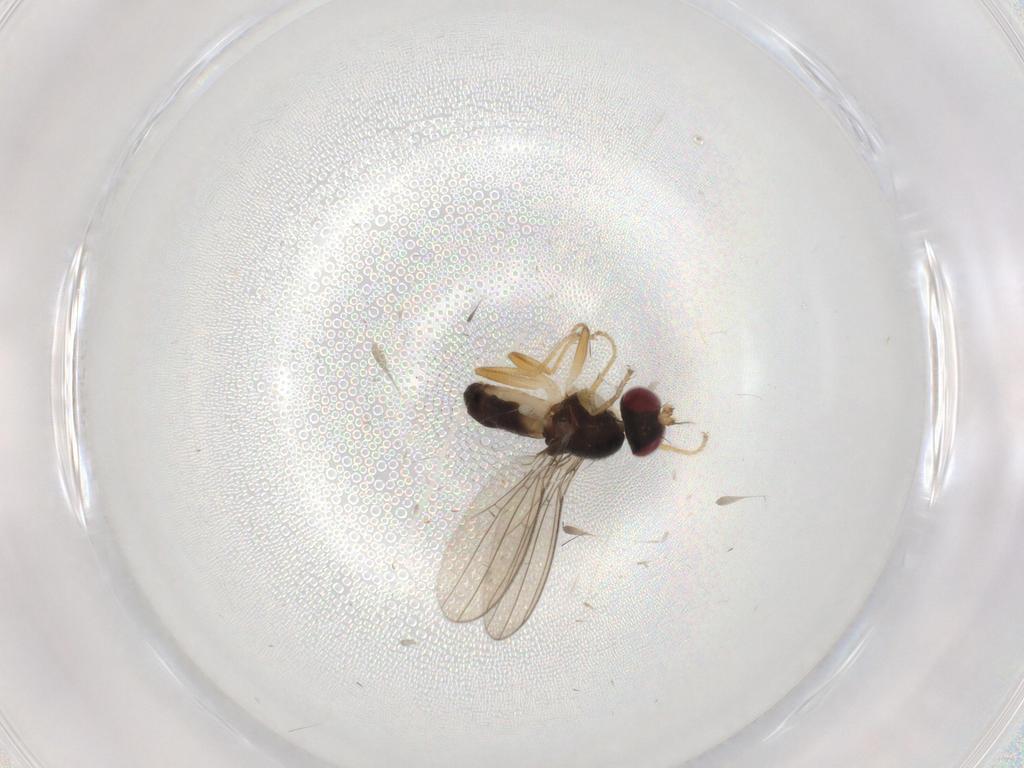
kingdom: Animalia
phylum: Arthropoda
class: Insecta
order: Diptera
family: Anthomyzidae
